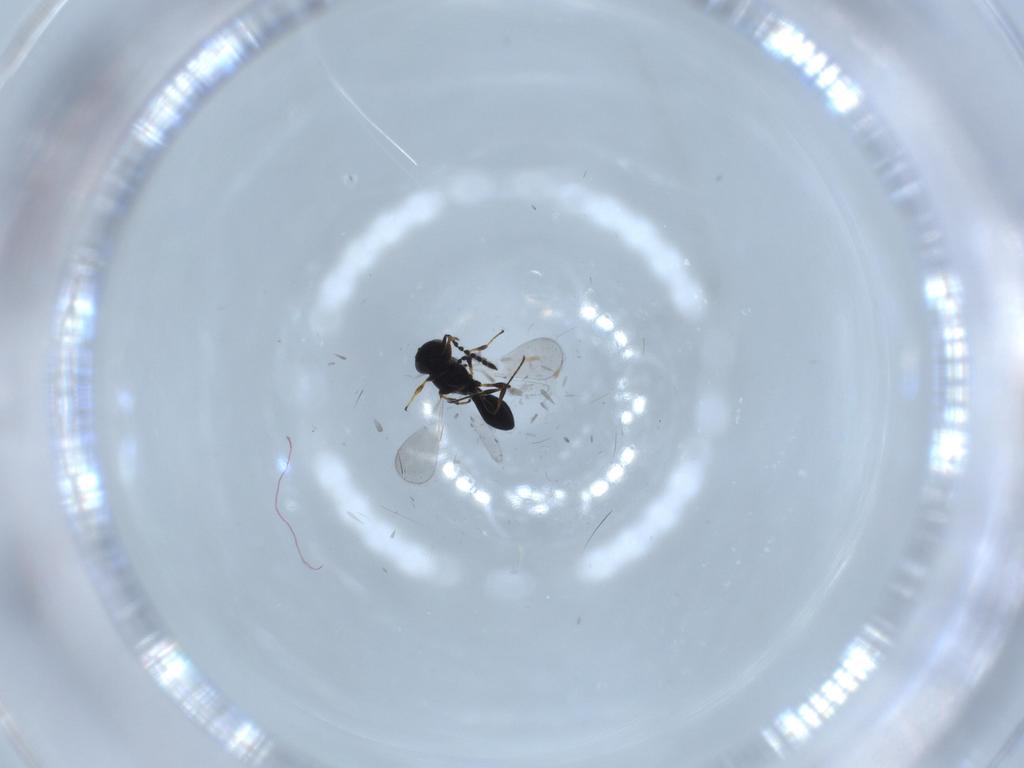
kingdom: Animalia
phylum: Arthropoda
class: Insecta
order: Hymenoptera
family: Platygastridae
